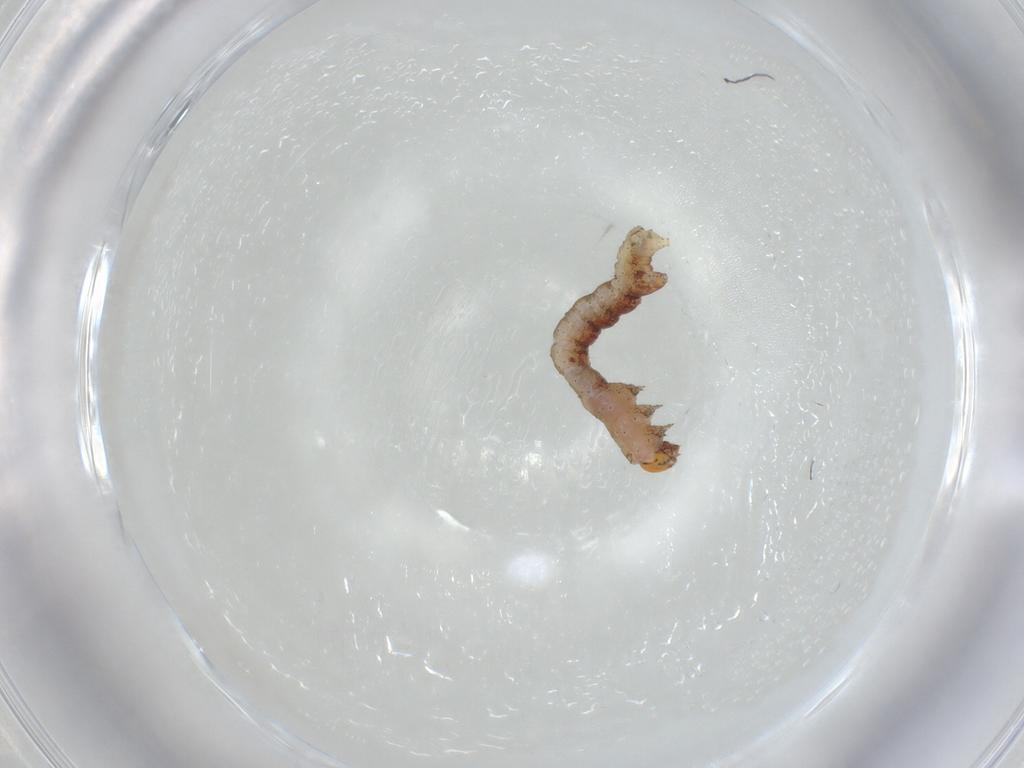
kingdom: Animalia
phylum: Arthropoda
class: Insecta
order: Lepidoptera
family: Geometridae
